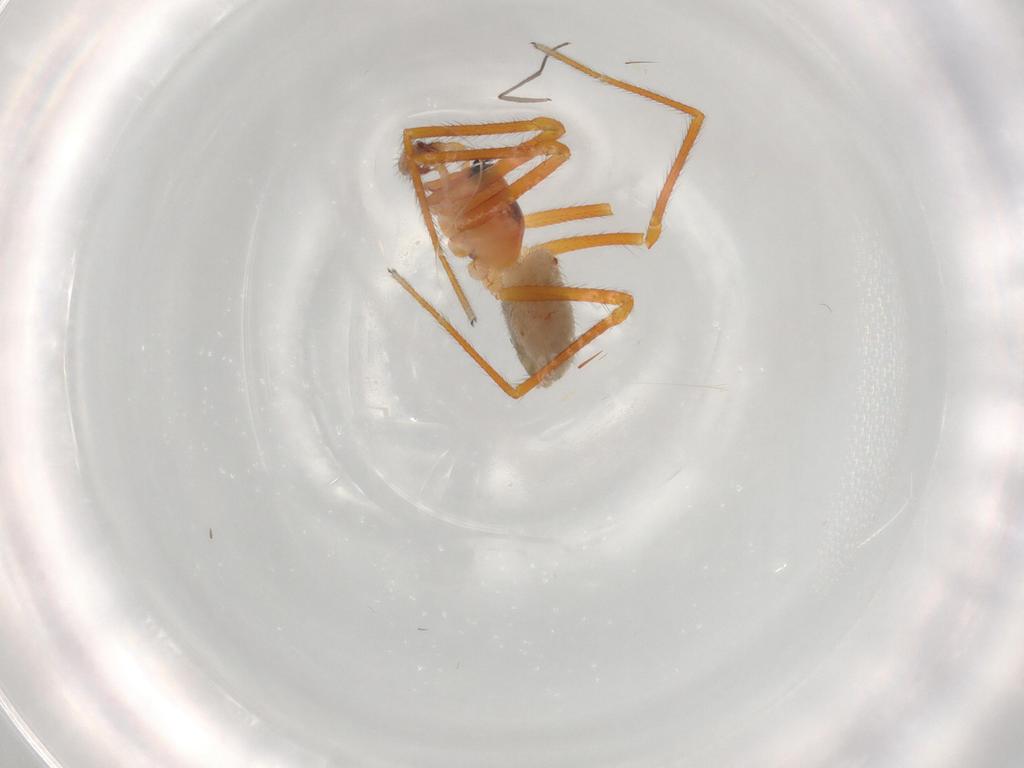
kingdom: Animalia
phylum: Arthropoda
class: Arachnida
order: Araneae
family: Linyphiidae
